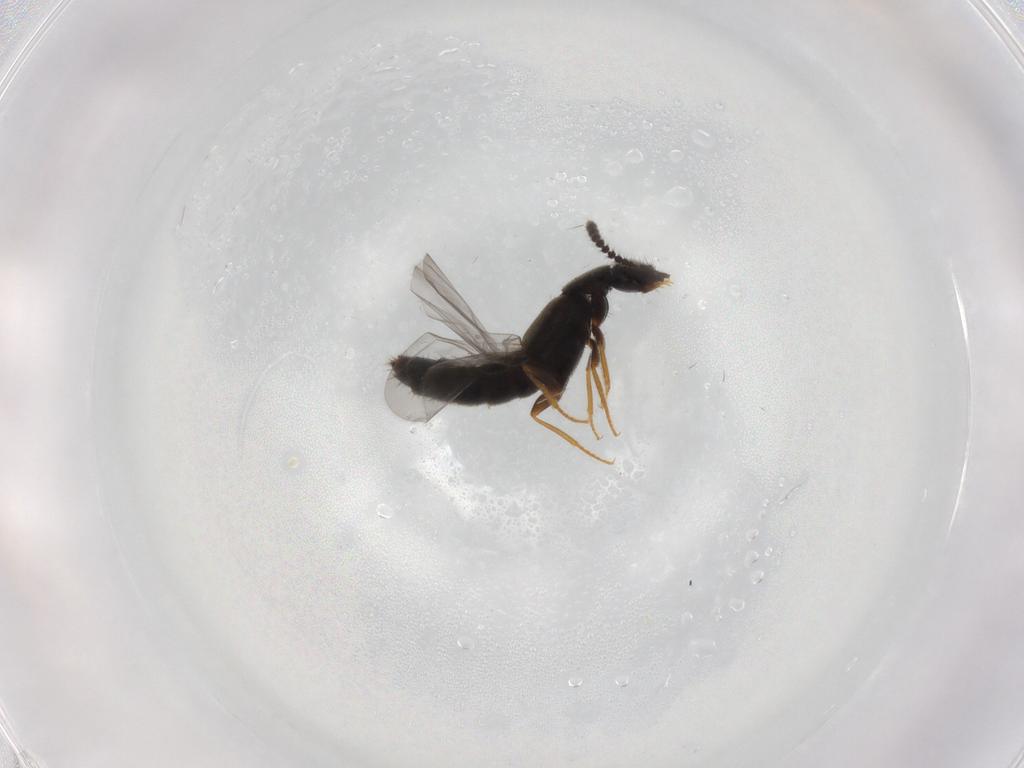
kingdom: Animalia
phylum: Arthropoda
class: Insecta
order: Coleoptera
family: Staphylinidae
